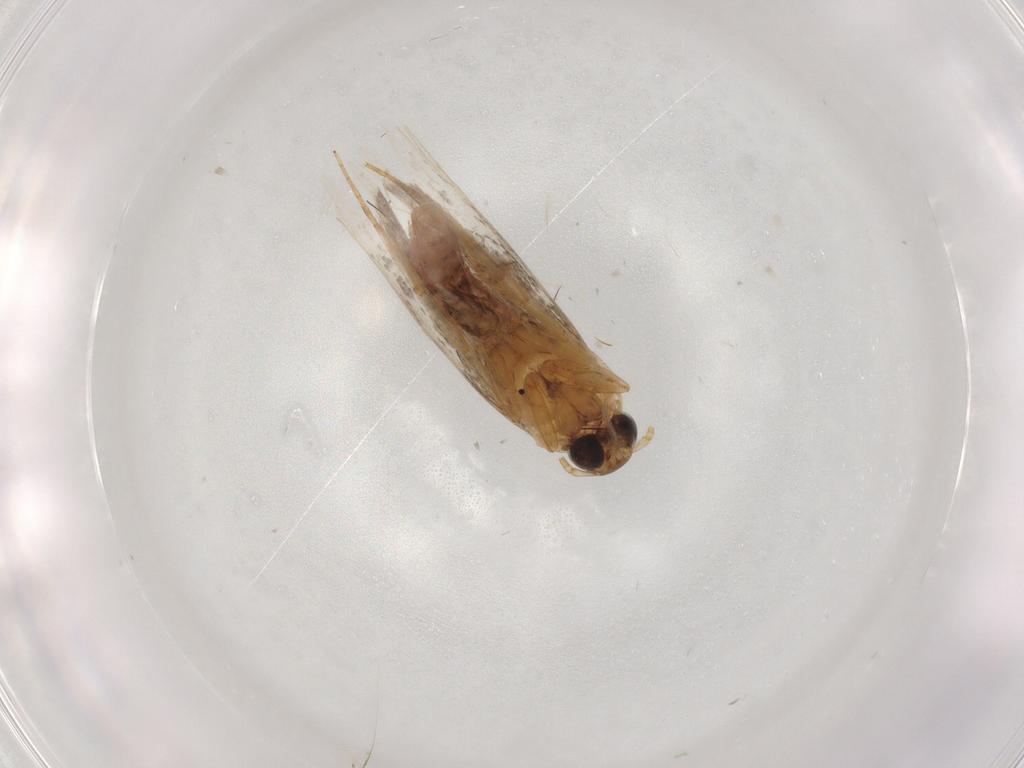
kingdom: Animalia
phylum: Arthropoda
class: Insecta
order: Lepidoptera
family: Plutellidae
